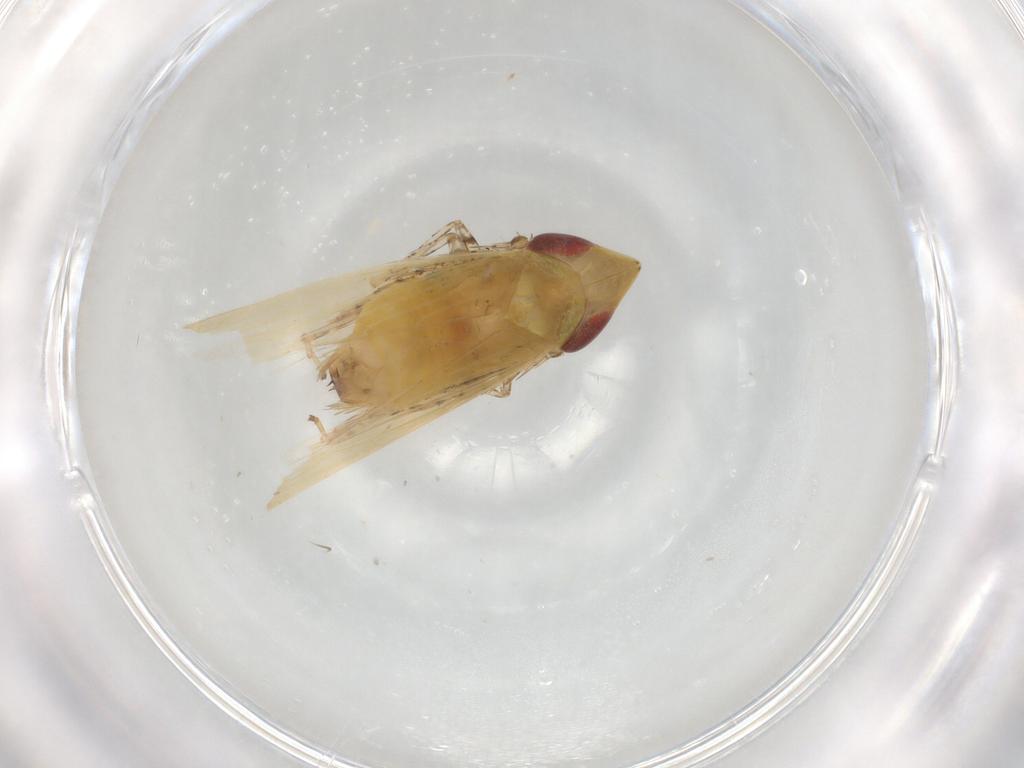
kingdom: Animalia
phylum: Arthropoda
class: Insecta
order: Hemiptera
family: Cicadellidae
